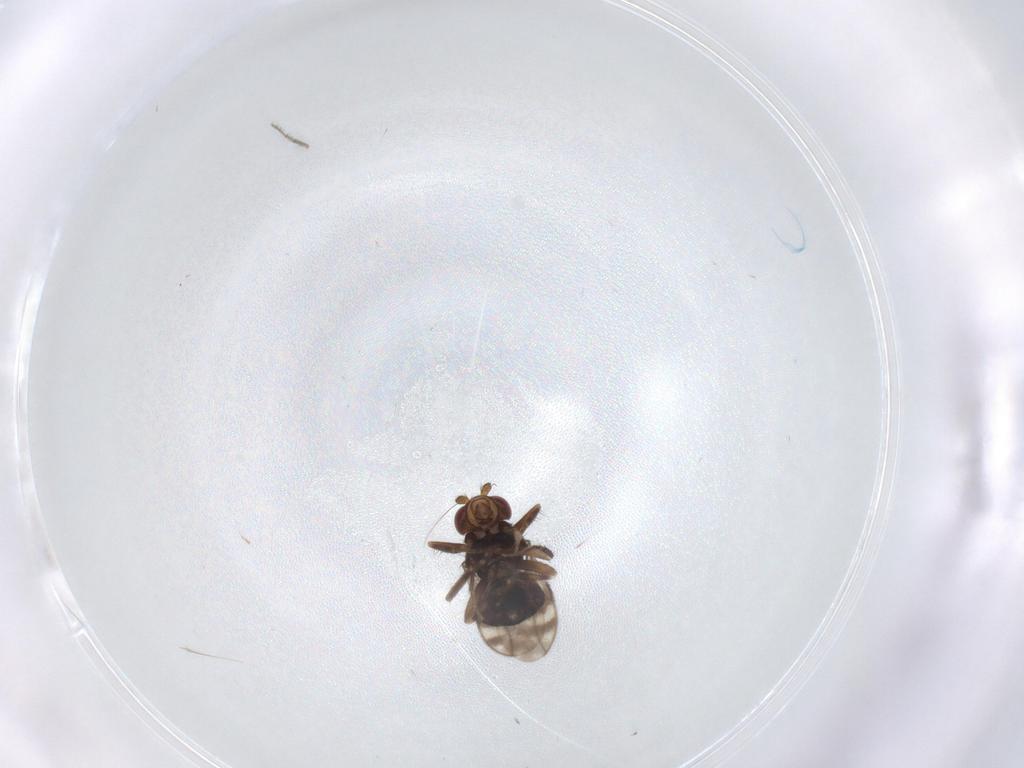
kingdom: Animalia
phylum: Arthropoda
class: Insecta
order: Diptera
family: Sphaeroceridae
